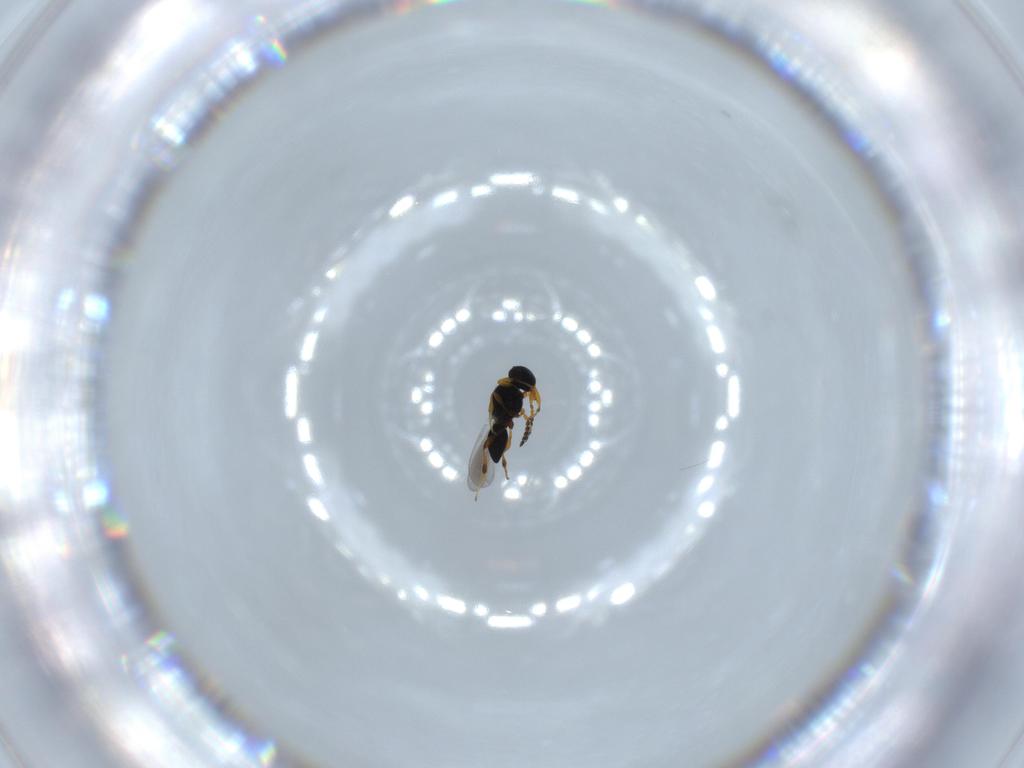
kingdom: Animalia
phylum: Arthropoda
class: Insecta
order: Hymenoptera
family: Platygastridae
